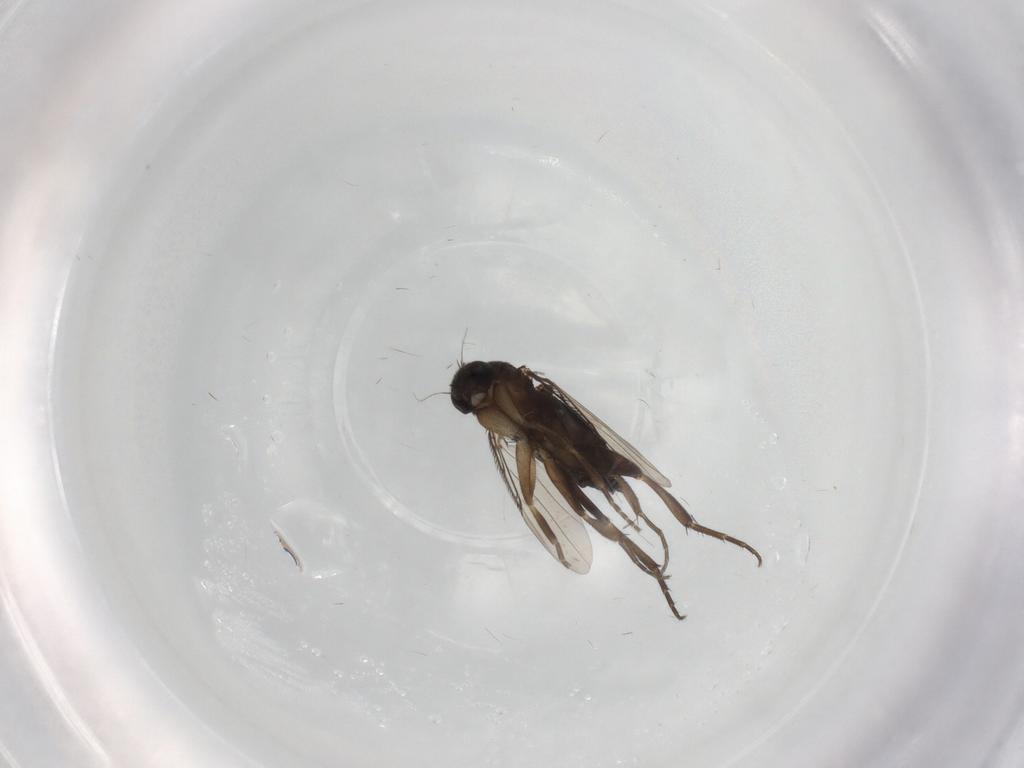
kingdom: Animalia
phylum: Arthropoda
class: Insecta
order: Diptera
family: Phoridae
